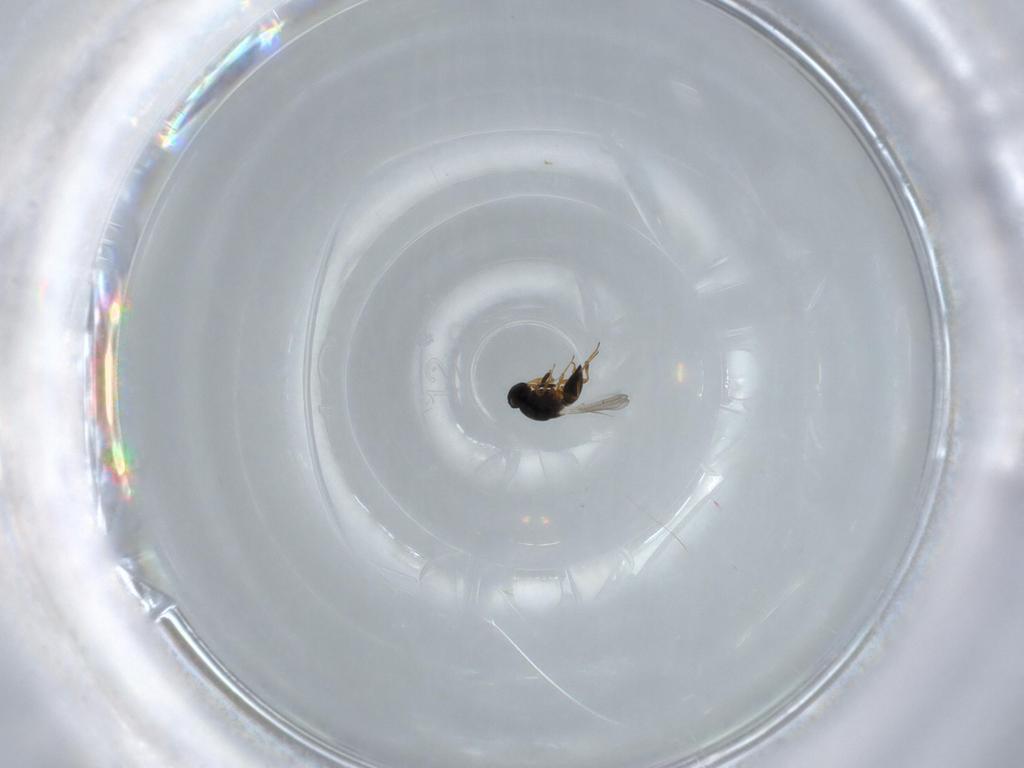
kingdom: Animalia
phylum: Arthropoda
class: Insecta
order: Hymenoptera
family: Platygastridae
